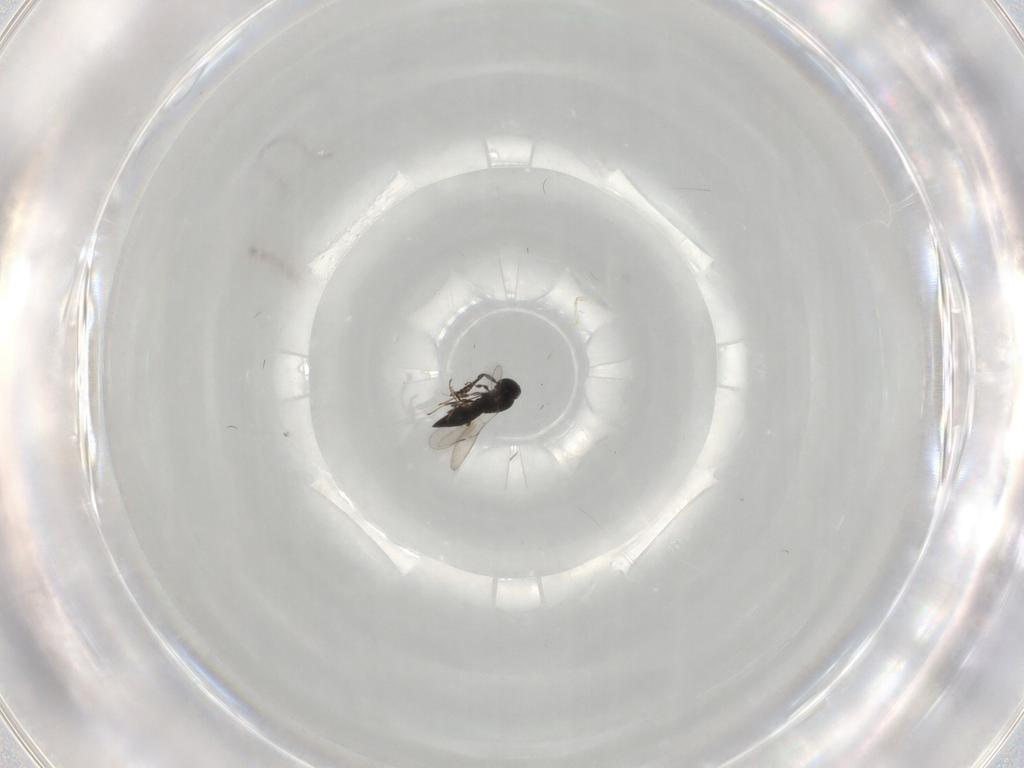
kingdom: Animalia
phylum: Arthropoda
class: Insecta
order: Hymenoptera
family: Scelionidae
